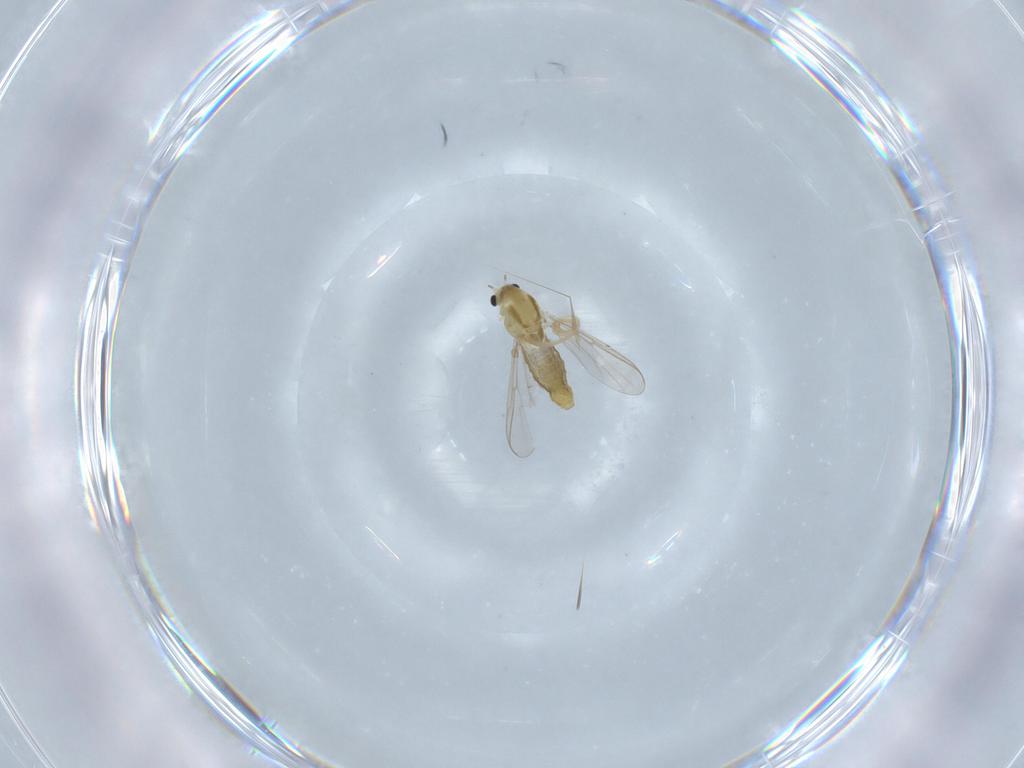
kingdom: Animalia
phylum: Arthropoda
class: Insecta
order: Diptera
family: Chironomidae
